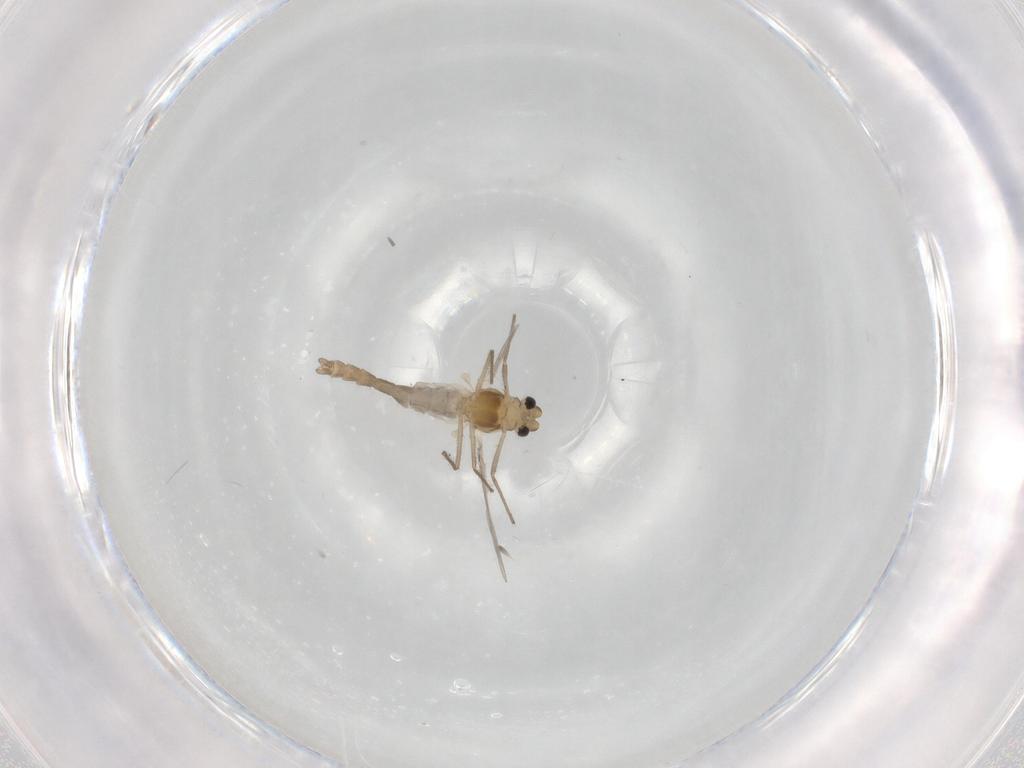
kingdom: Animalia
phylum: Arthropoda
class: Insecta
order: Diptera
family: Chironomidae
